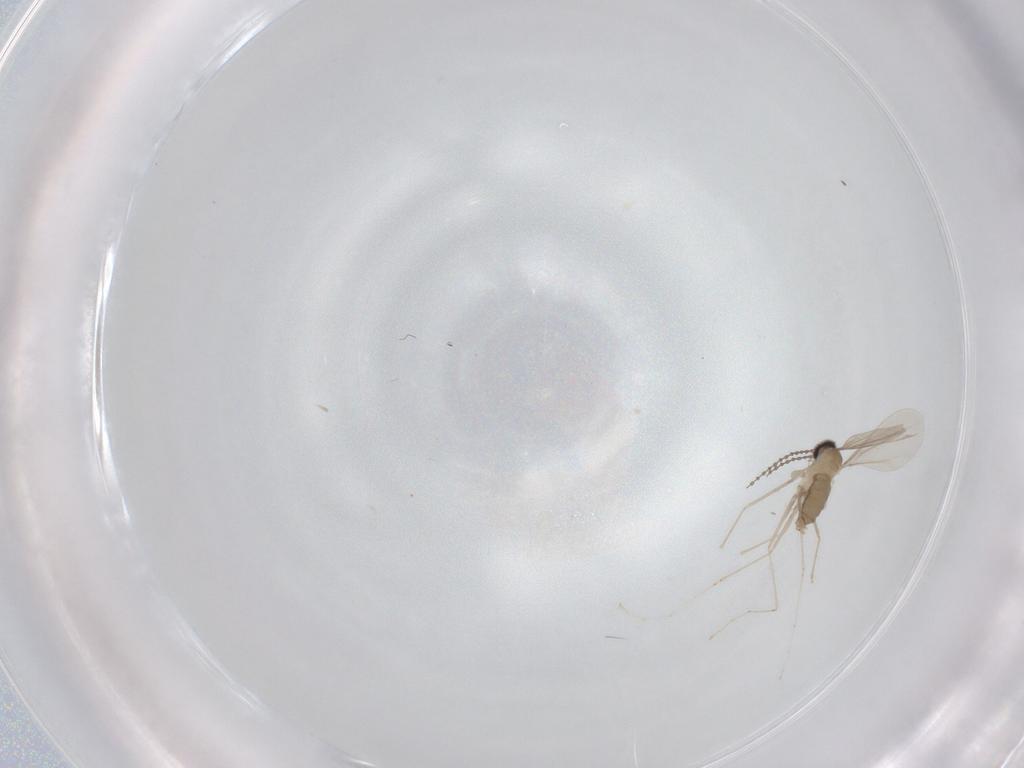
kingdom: Animalia
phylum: Arthropoda
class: Insecta
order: Diptera
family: Cecidomyiidae
